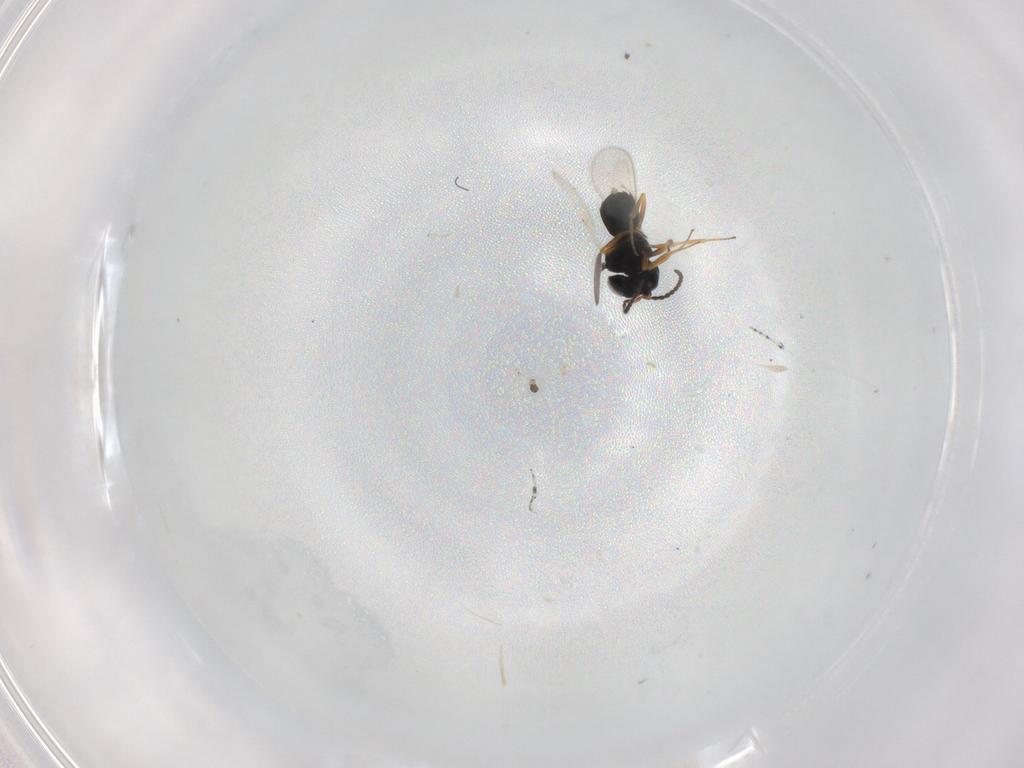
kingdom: Animalia
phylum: Arthropoda
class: Insecta
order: Hymenoptera
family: Scelionidae
